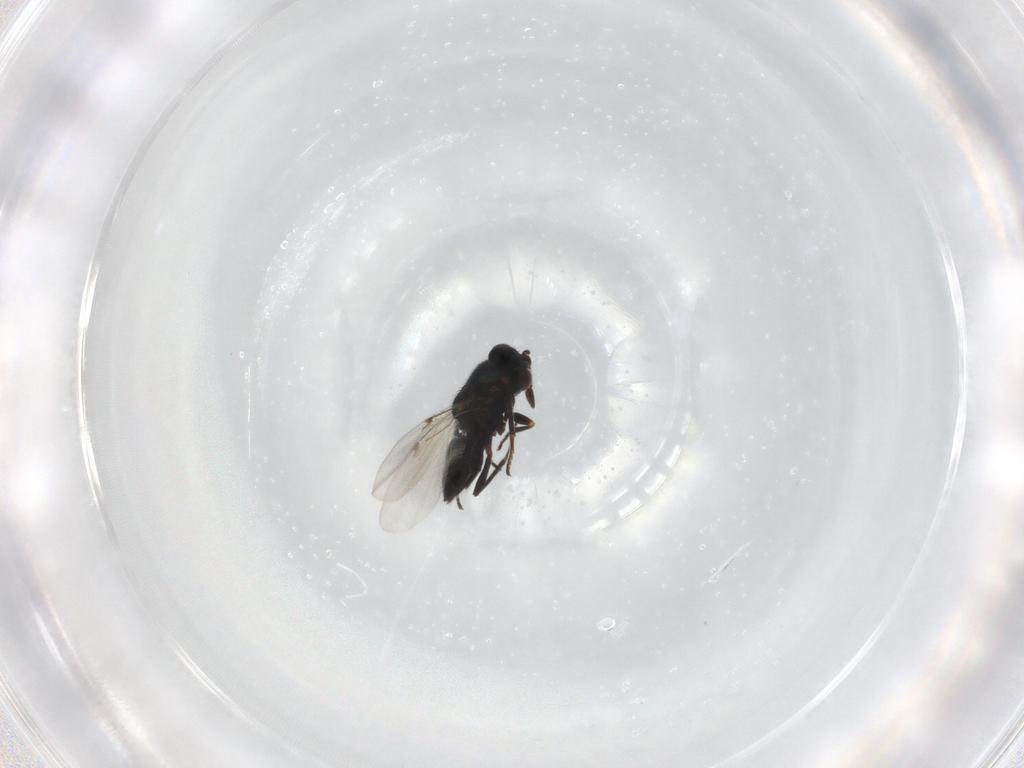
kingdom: Animalia
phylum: Arthropoda
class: Insecta
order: Hymenoptera
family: Encyrtidae
